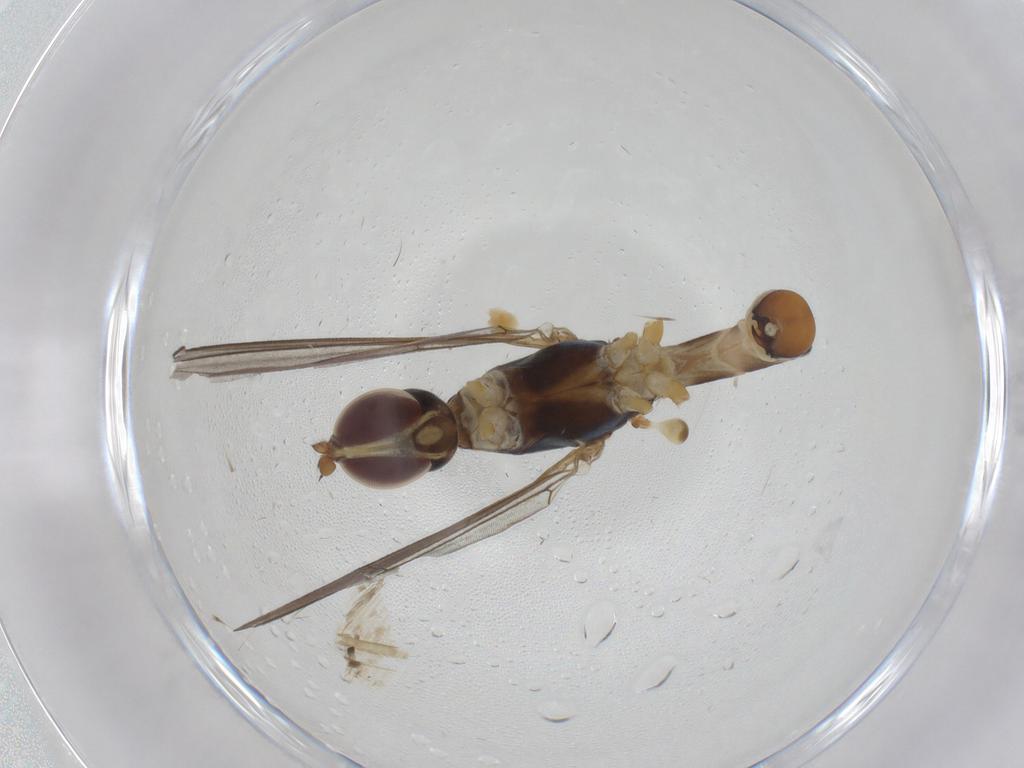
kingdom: Animalia
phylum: Arthropoda
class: Insecta
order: Diptera
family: Micropezidae
